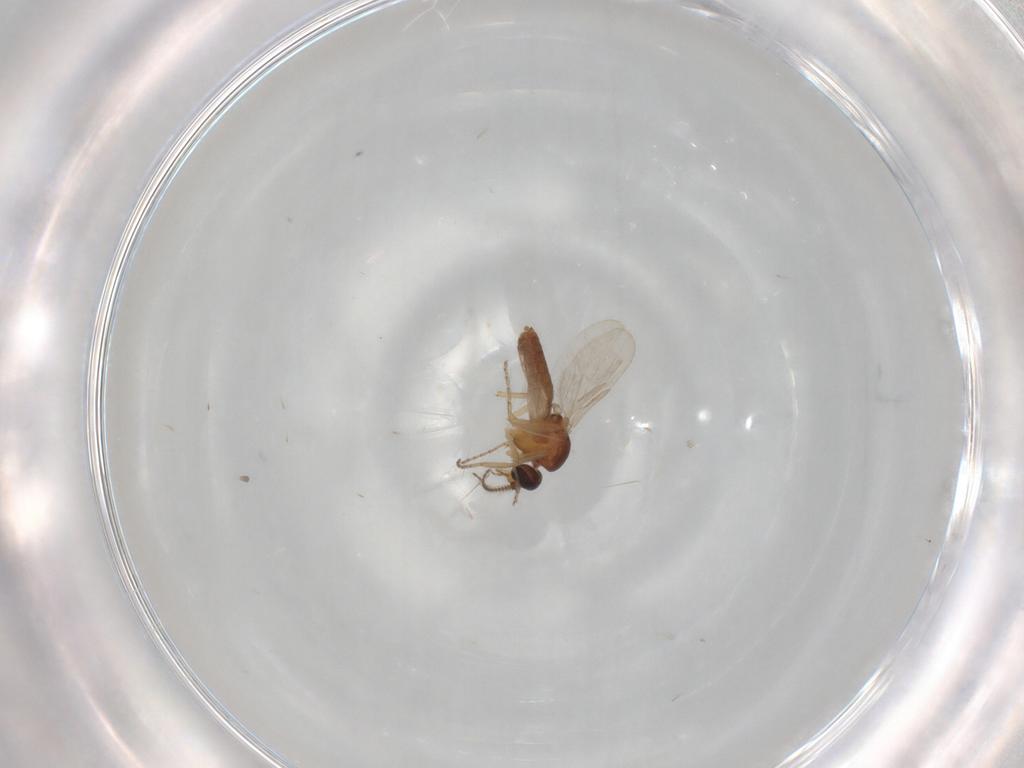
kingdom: Animalia
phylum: Arthropoda
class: Insecta
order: Diptera
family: Ceratopogonidae
